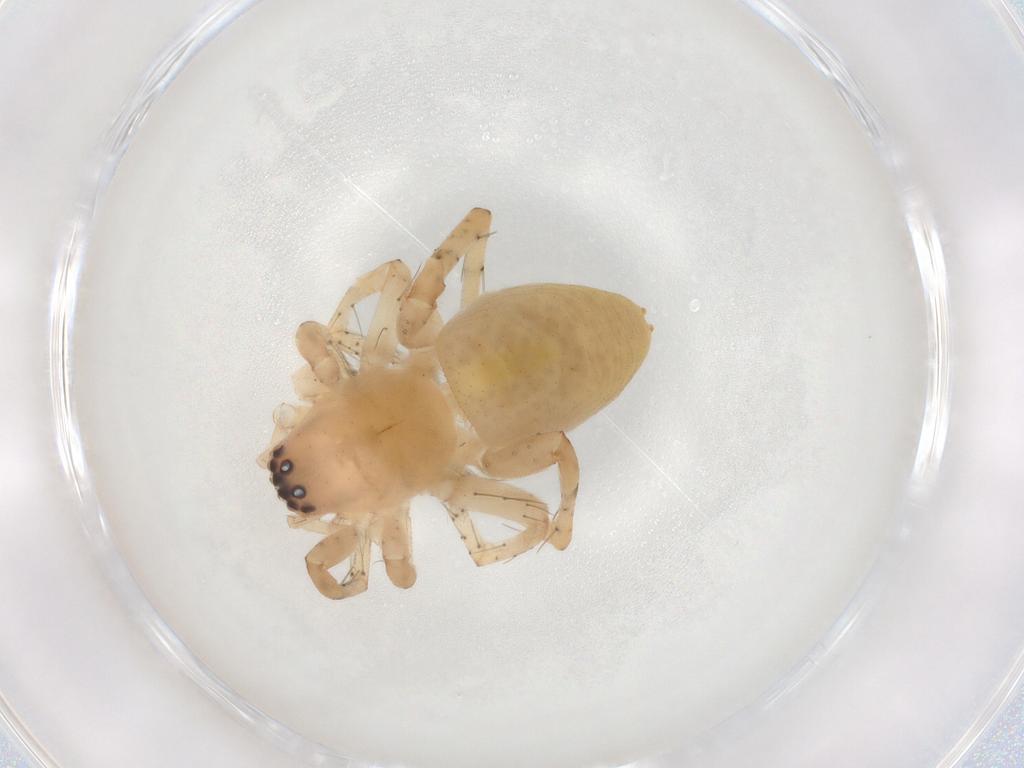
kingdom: Animalia
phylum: Arthropoda
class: Arachnida
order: Araneae
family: Clubionidae
